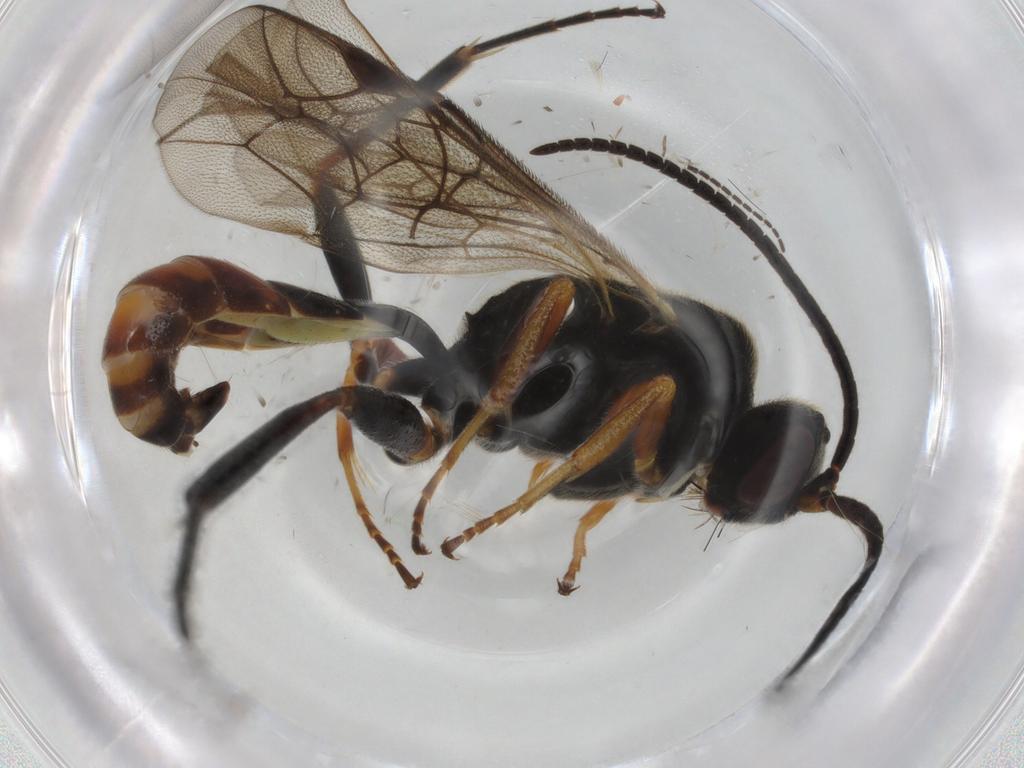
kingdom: Animalia
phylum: Arthropoda
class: Insecta
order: Hymenoptera
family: Ichneumonidae
